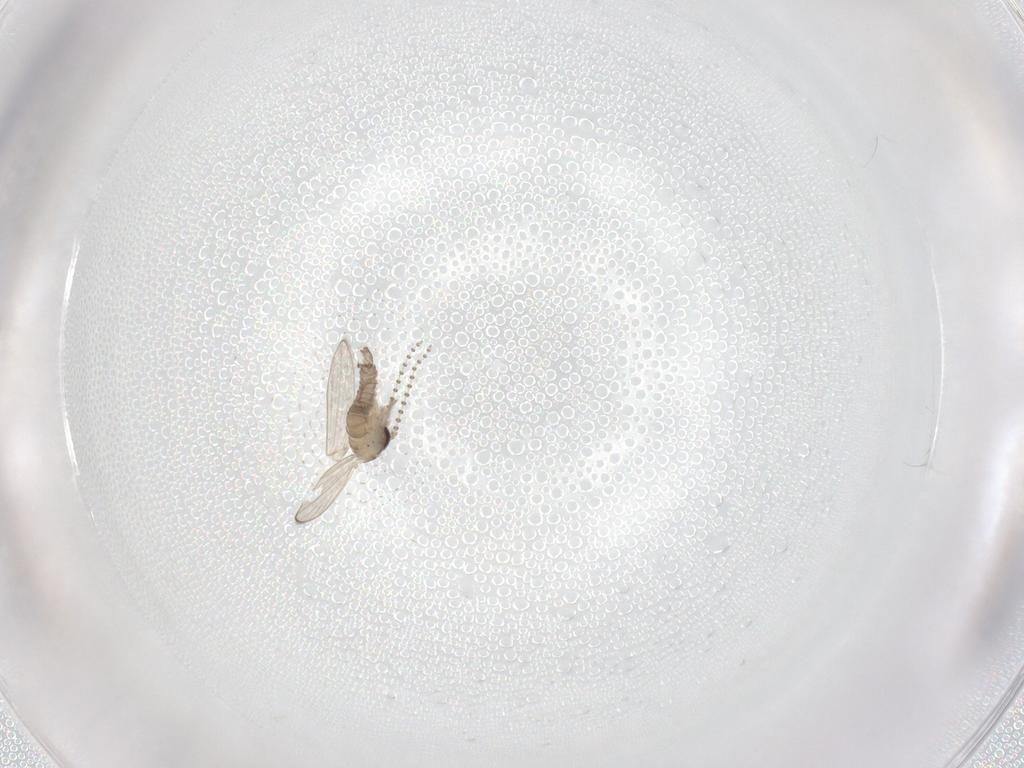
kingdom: Animalia
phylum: Arthropoda
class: Insecta
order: Diptera
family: Psychodidae
